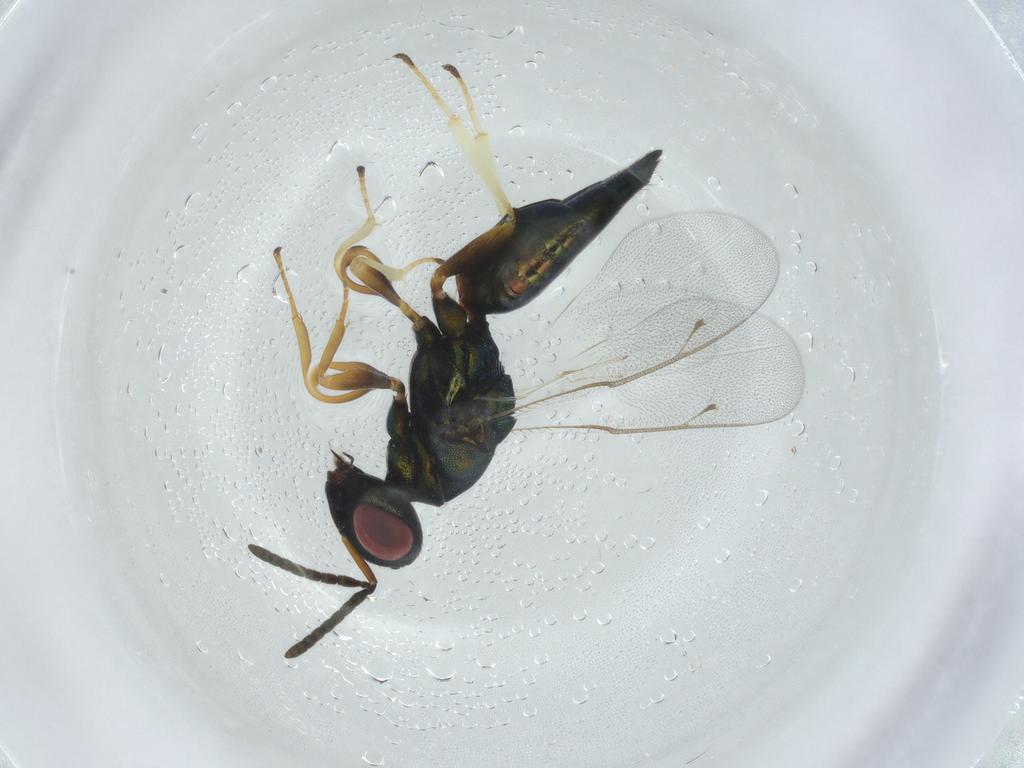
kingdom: Animalia
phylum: Arthropoda
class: Insecta
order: Hymenoptera
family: Pteromalidae
